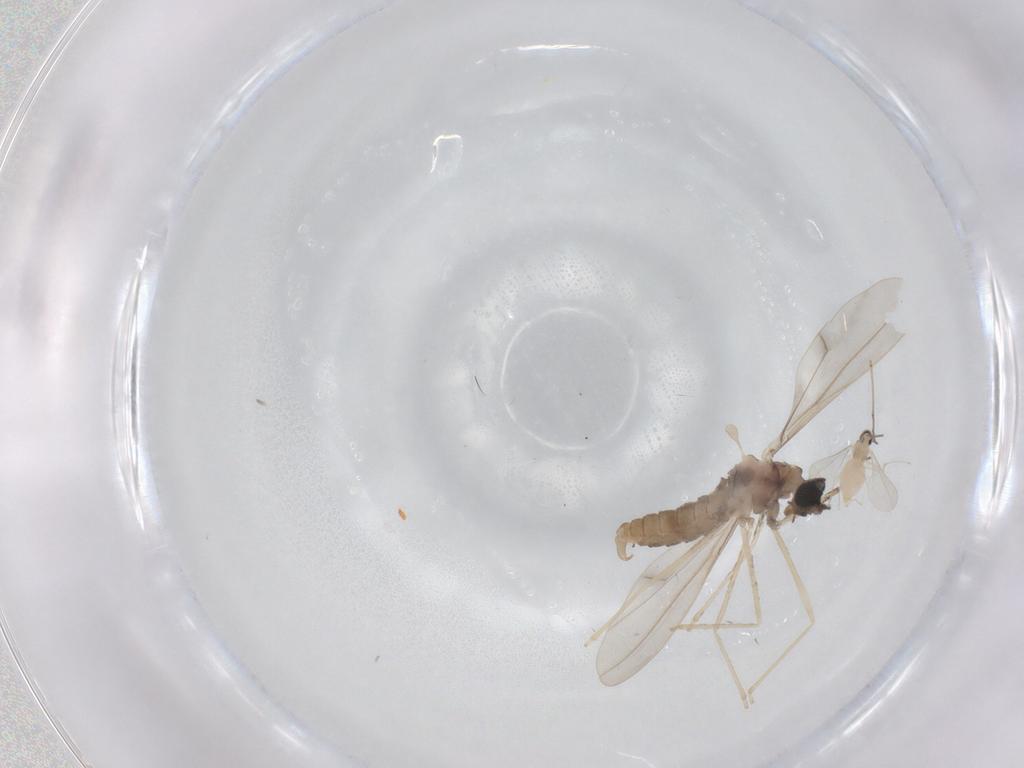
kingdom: Animalia
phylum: Arthropoda
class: Insecta
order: Diptera
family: Cecidomyiidae
